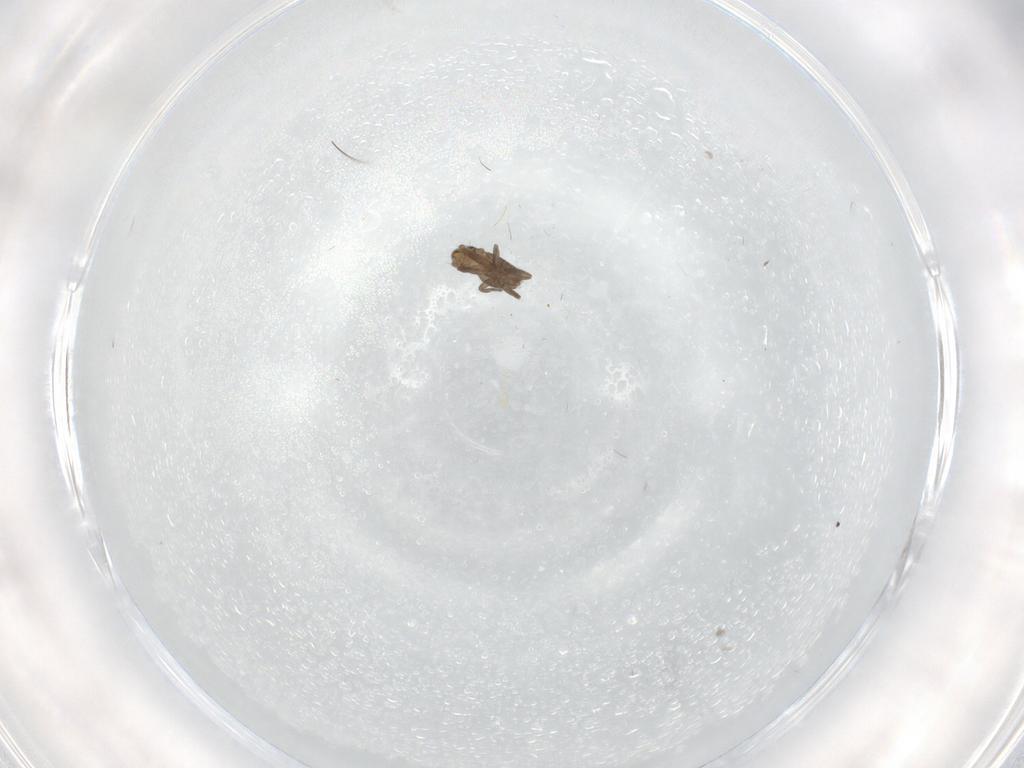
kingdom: Animalia
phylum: Arthropoda
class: Insecta
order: Diptera
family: Phoridae
